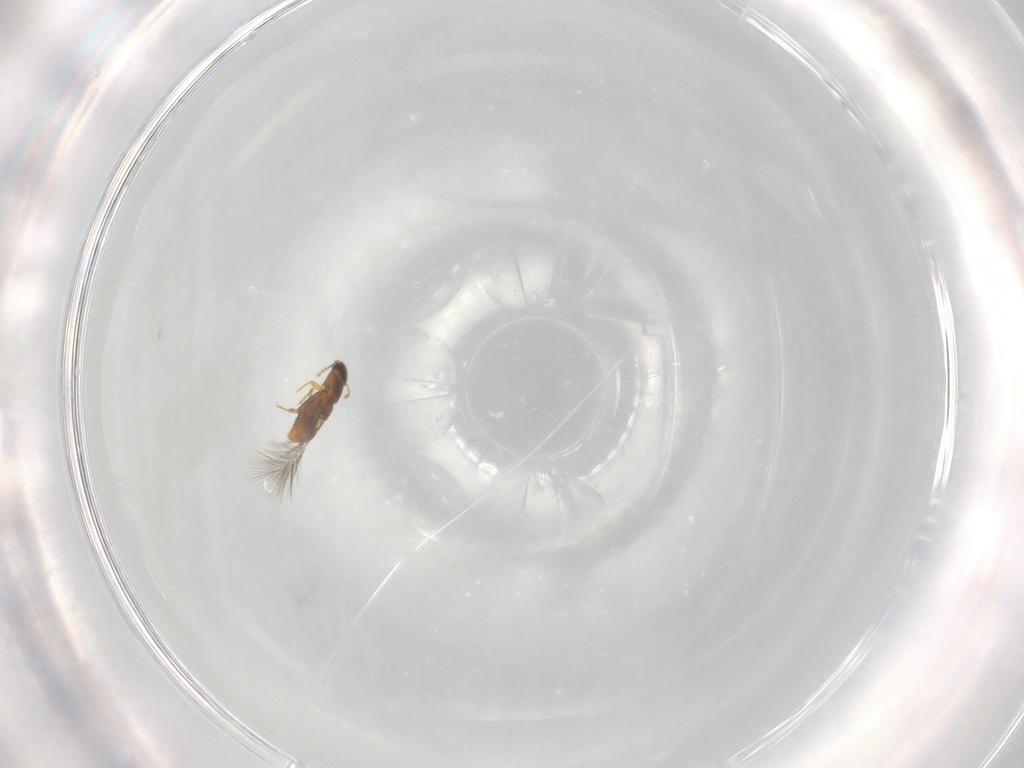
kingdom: Animalia
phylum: Arthropoda
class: Insecta
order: Coleoptera
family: Ptiliidae
